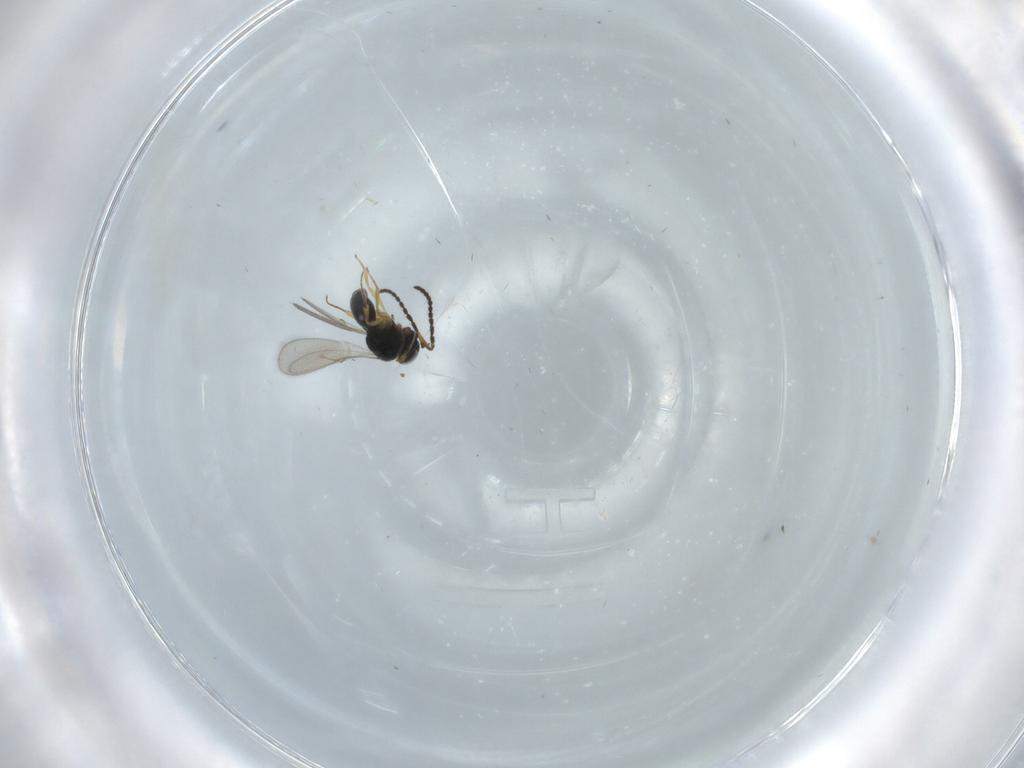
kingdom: Animalia
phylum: Arthropoda
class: Insecta
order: Hymenoptera
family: Scelionidae
